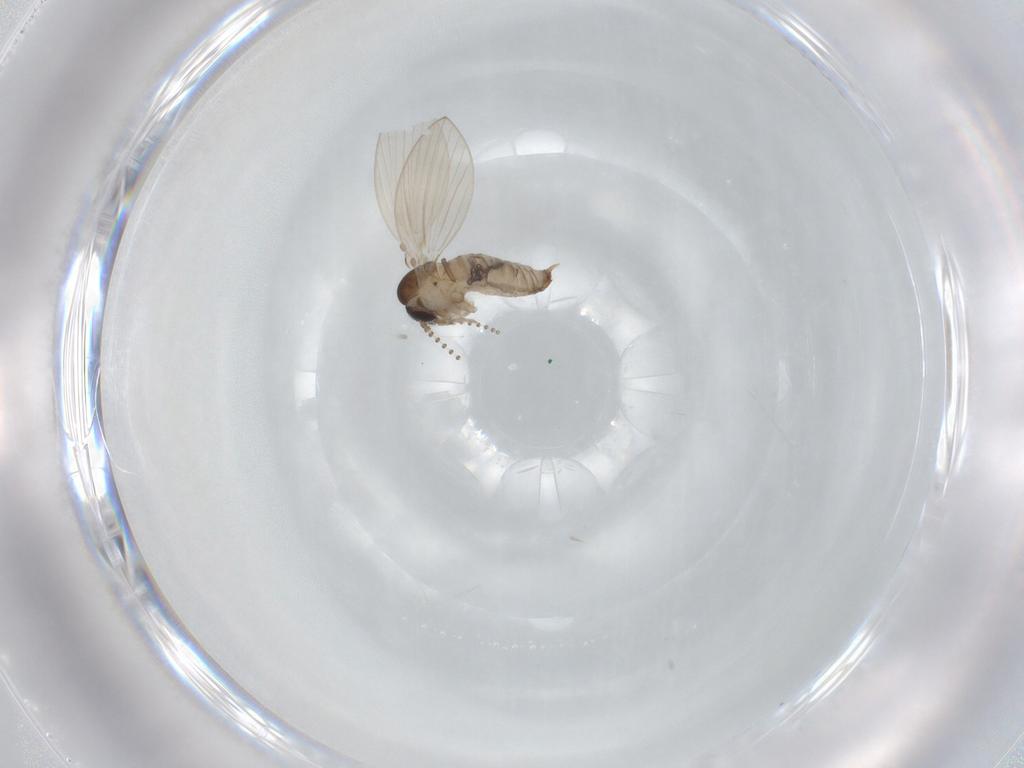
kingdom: Animalia
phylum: Arthropoda
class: Insecta
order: Diptera
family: Psychodidae
